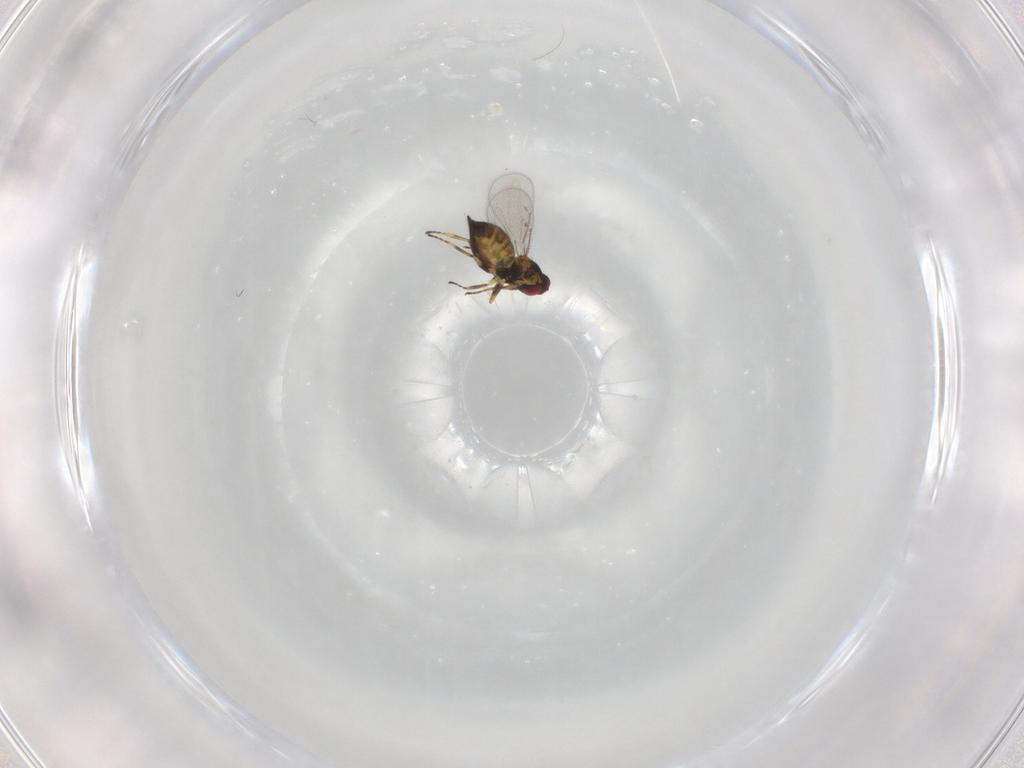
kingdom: Animalia
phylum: Arthropoda
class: Insecta
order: Hymenoptera
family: Eulophidae
